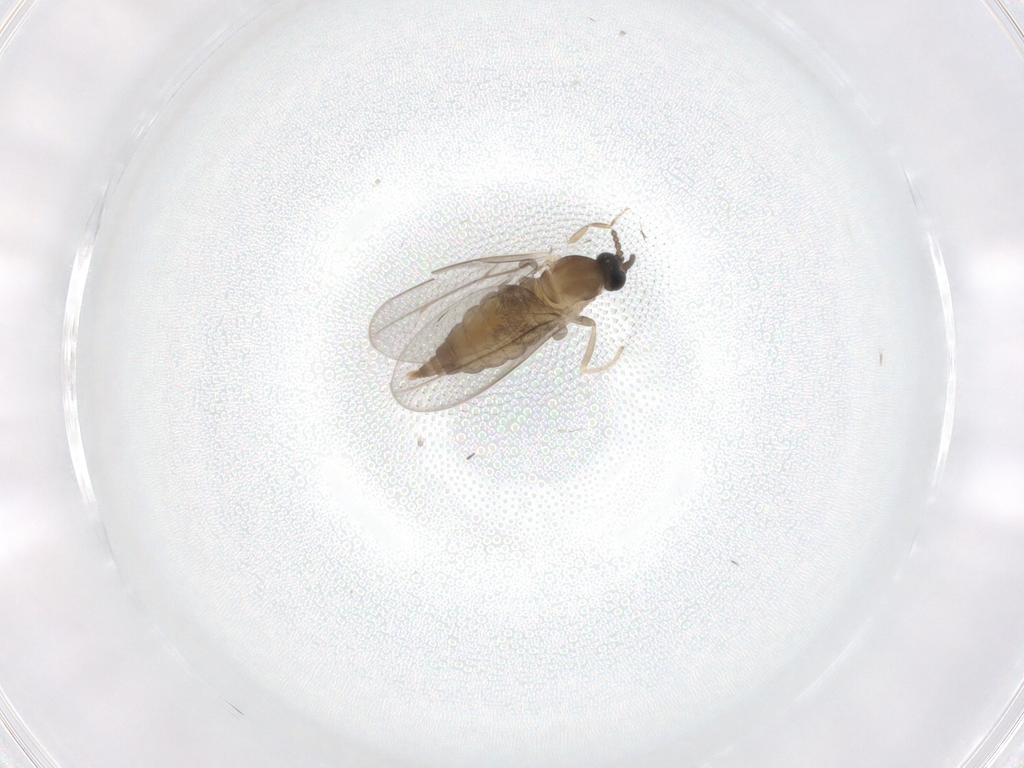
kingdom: Animalia
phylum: Arthropoda
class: Insecta
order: Diptera
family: Cecidomyiidae
